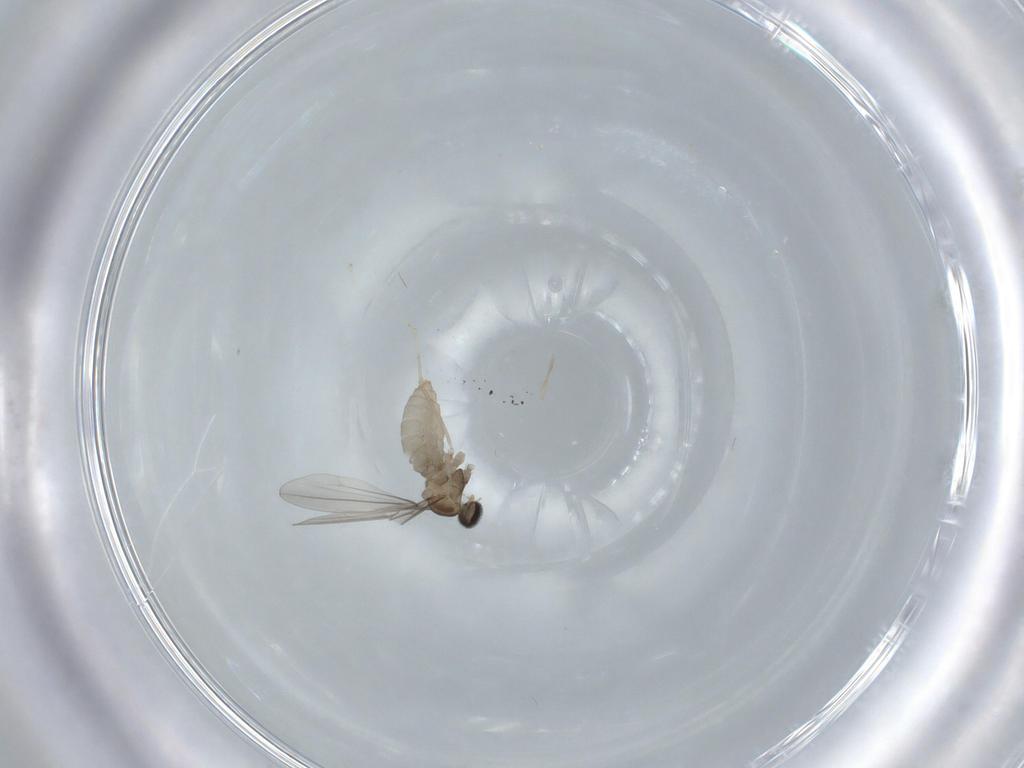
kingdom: Animalia
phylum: Arthropoda
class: Insecta
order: Diptera
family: Cecidomyiidae
